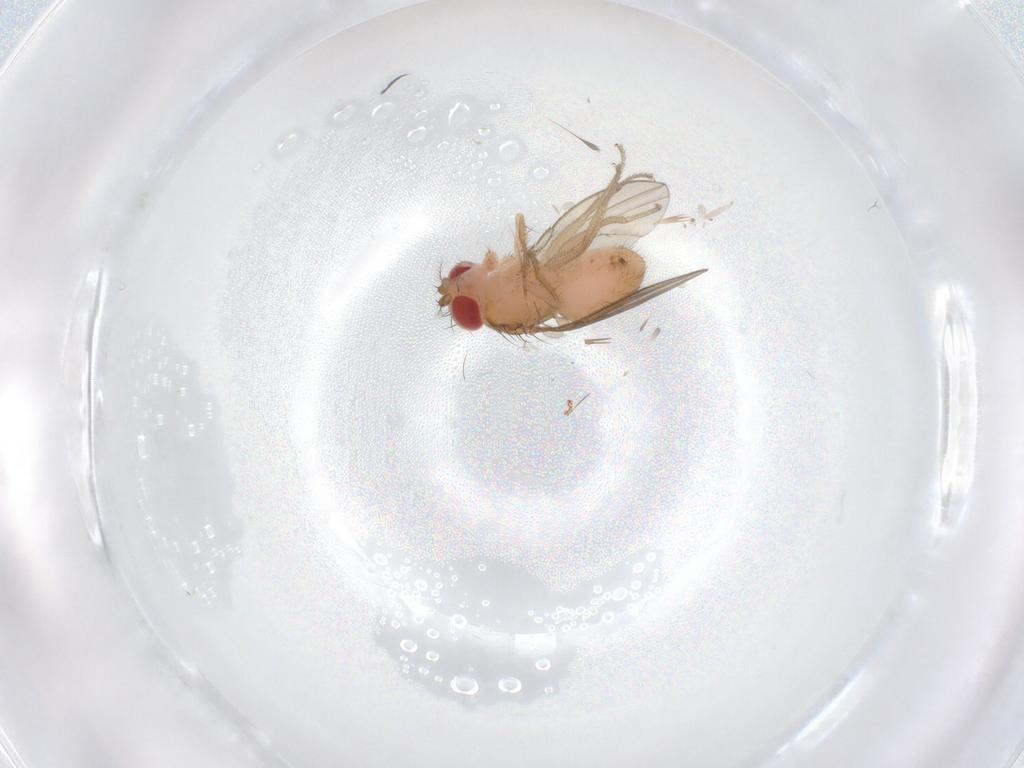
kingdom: Animalia
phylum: Arthropoda
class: Insecta
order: Diptera
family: Drosophilidae
